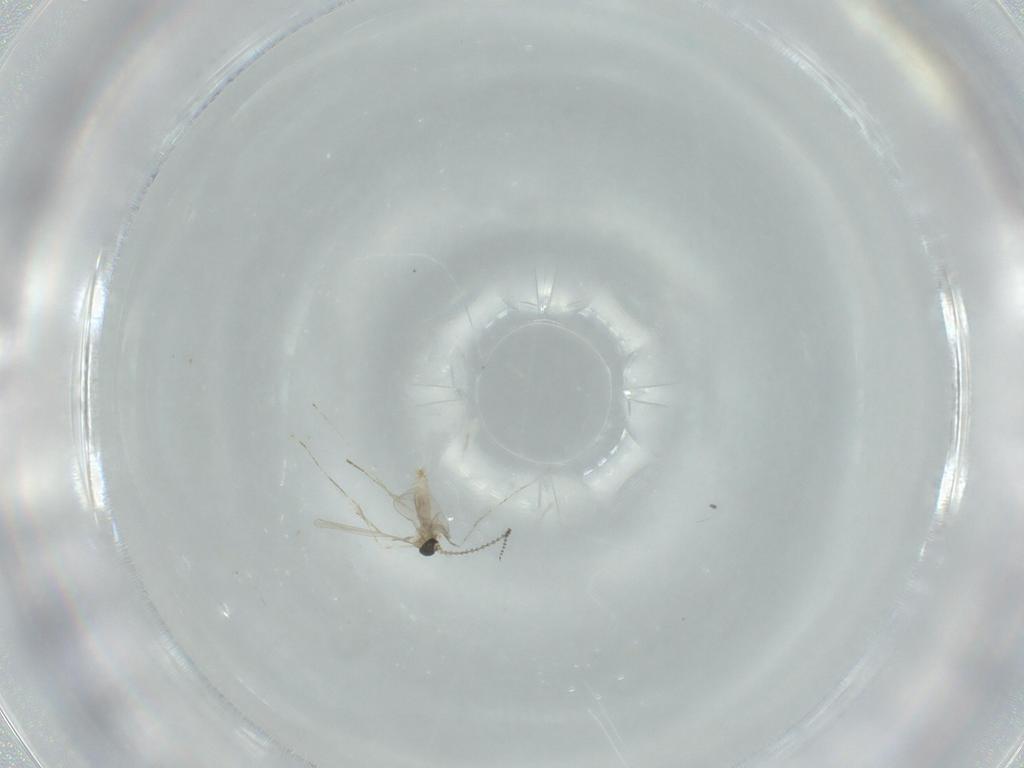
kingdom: Animalia
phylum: Arthropoda
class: Insecta
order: Diptera
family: Cecidomyiidae
